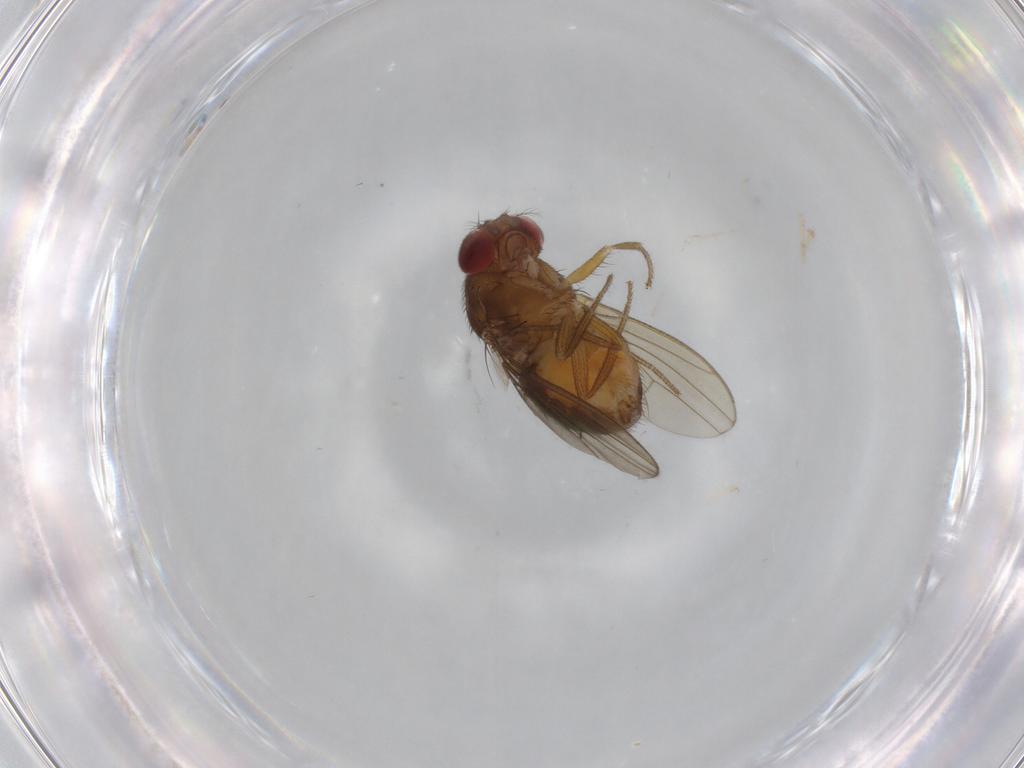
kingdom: Animalia
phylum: Arthropoda
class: Insecta
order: Diptera
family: Drosophilidae
